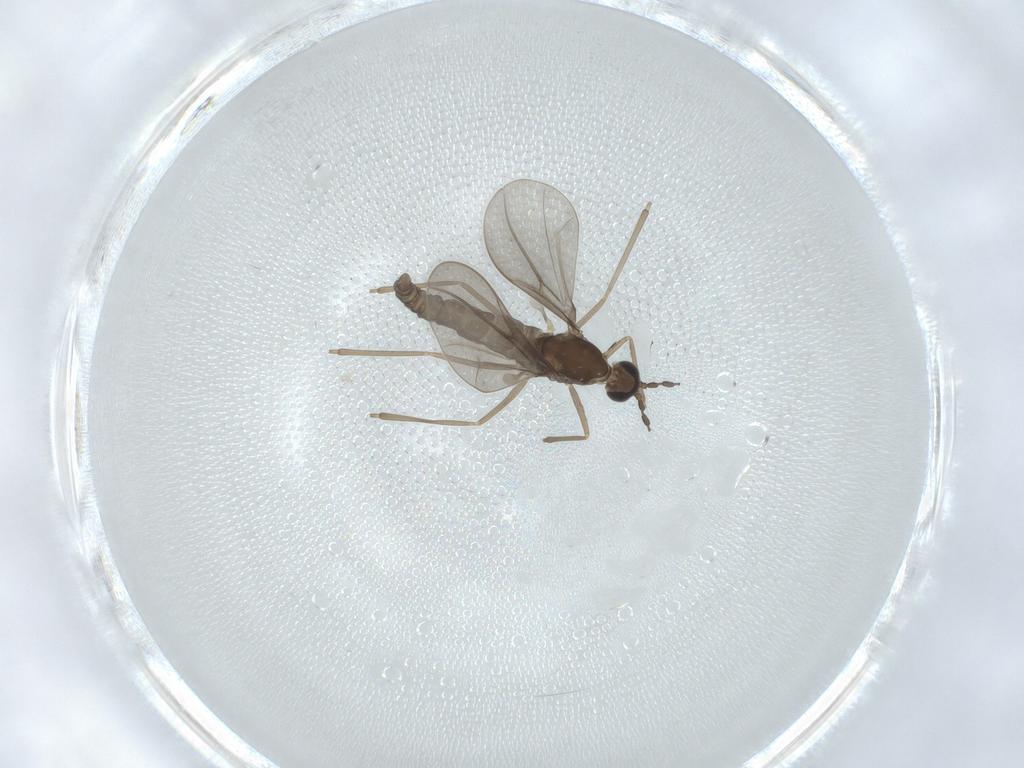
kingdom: Animalia
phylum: Arthropoda
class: Insecta
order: Diptera
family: Cecidomyiidae
